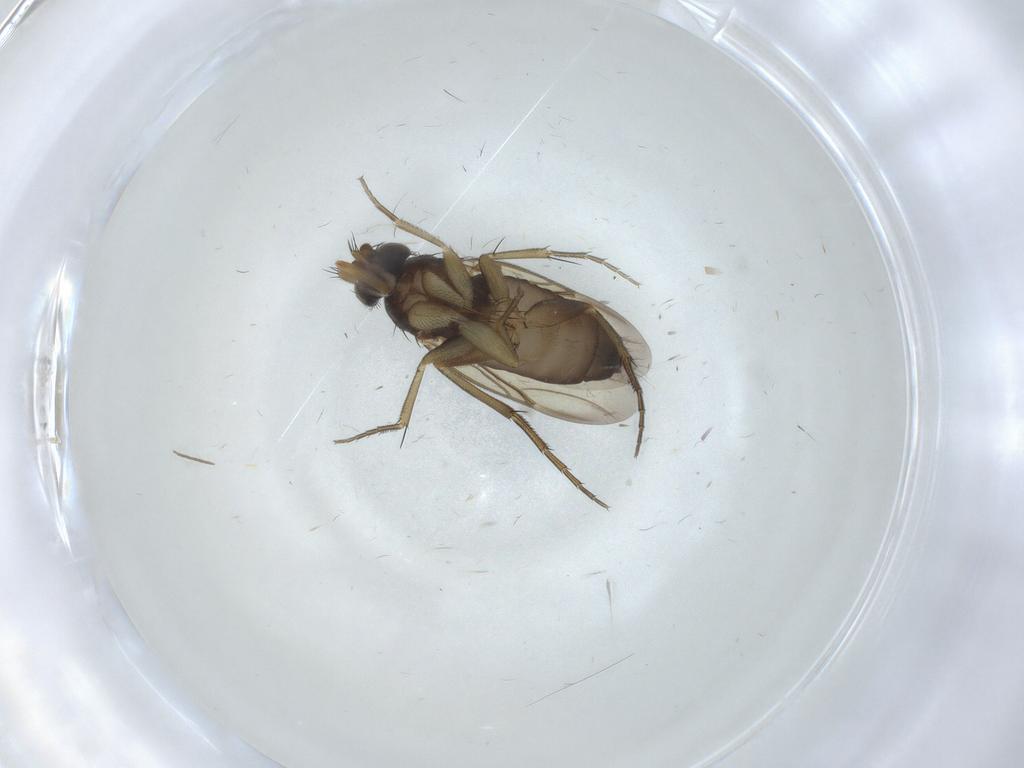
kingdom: Animalia
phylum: Arthropoda
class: Insecta
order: Diptera
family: Phoridae
